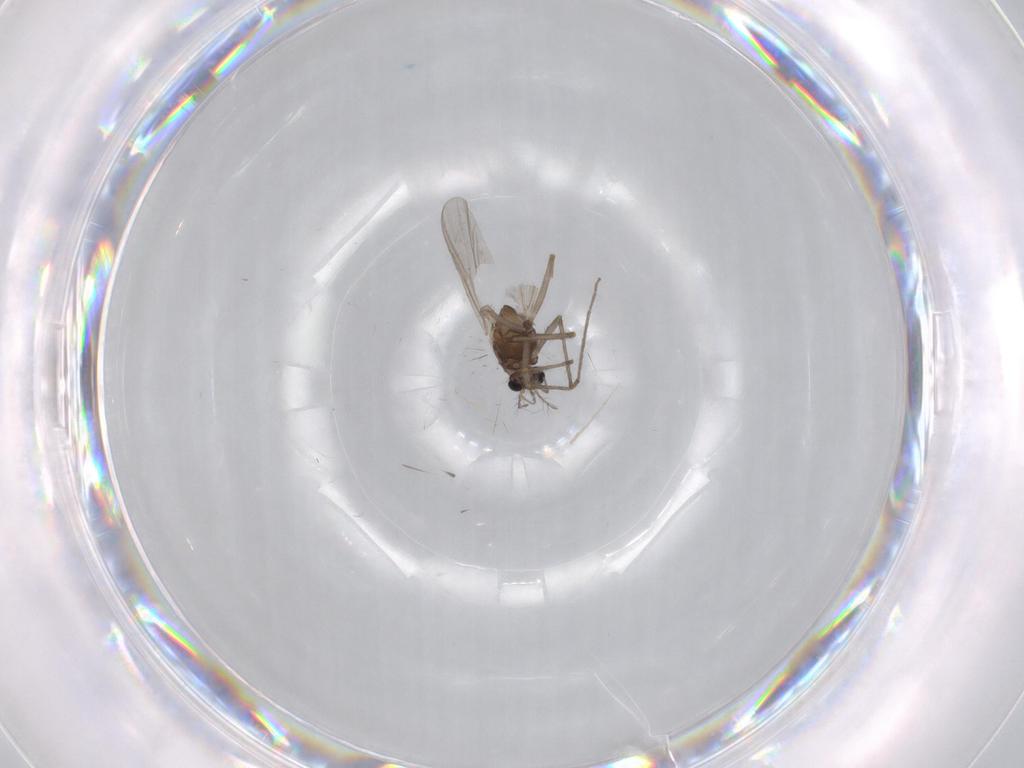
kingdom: Animalia
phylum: Arthropoda
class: Insecta
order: Diptera
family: Chironomidae
